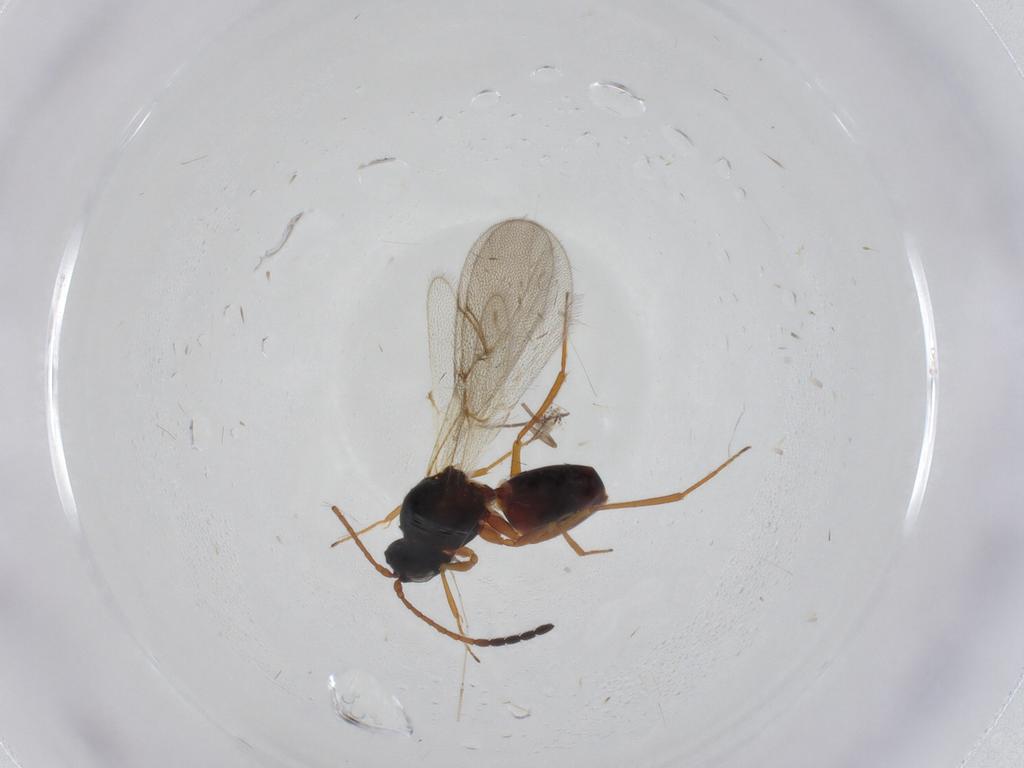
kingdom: Animalia
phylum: Arthropoda
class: Insecta
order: Hymenoptera
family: Figitidae
